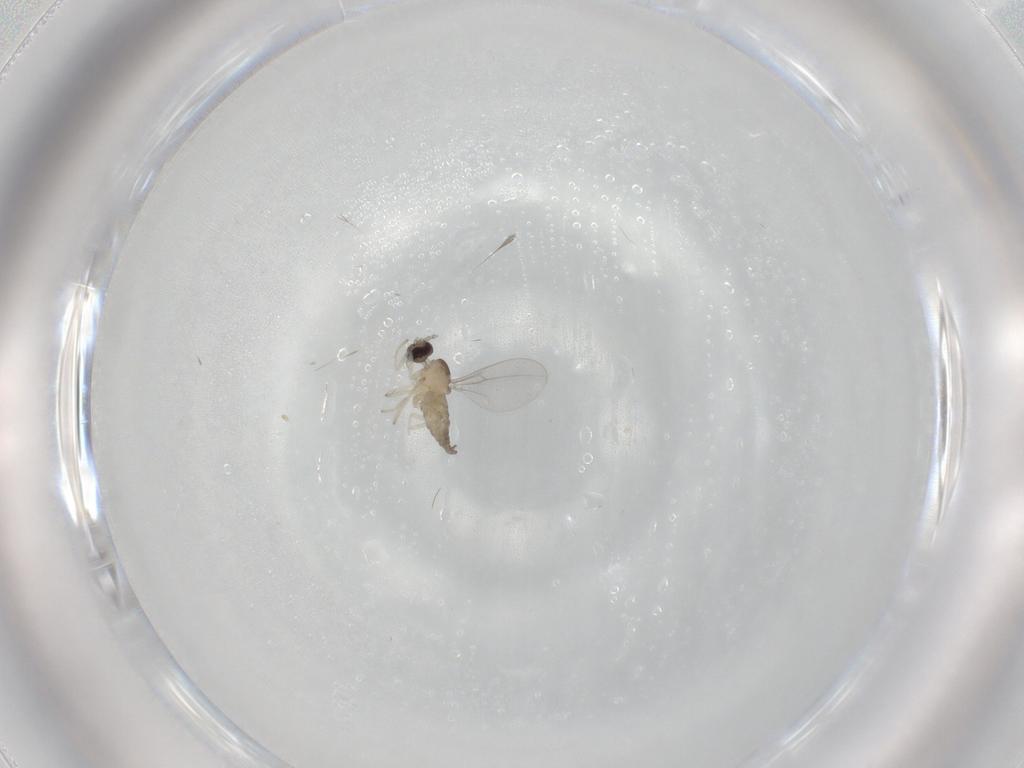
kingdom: Animalia
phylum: Arthropoda
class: Insecta
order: Diptera
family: Cecidomyiidae
